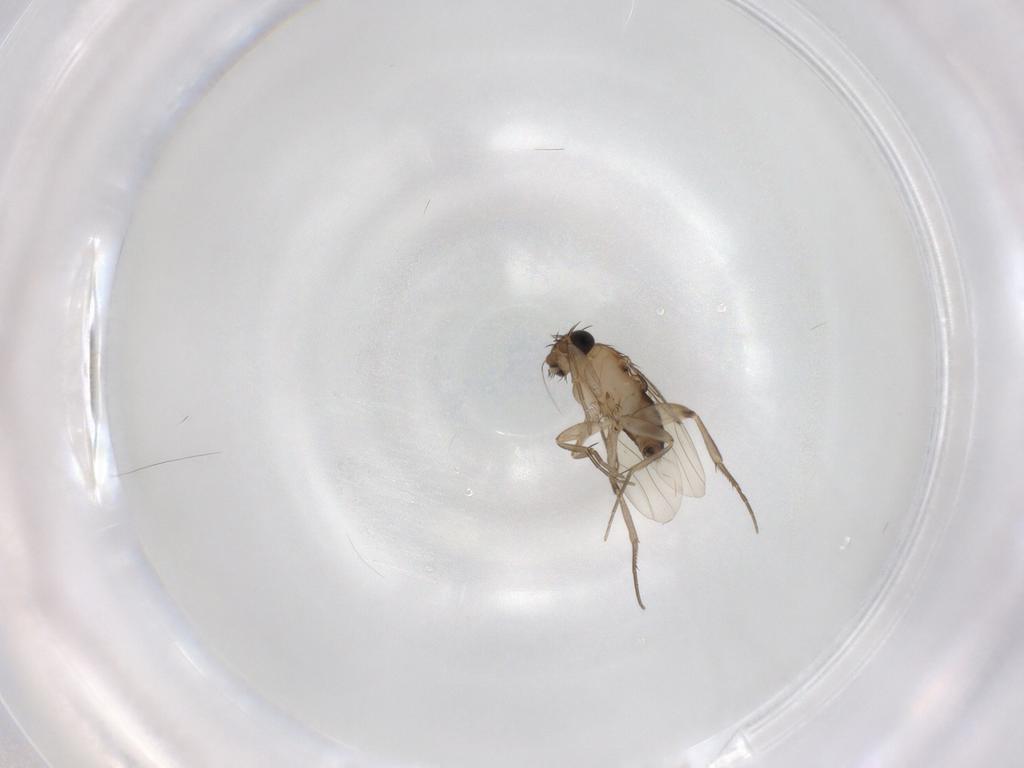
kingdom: Animalia
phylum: Arthropoda
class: Insecta
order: Diptera
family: Phoridae
